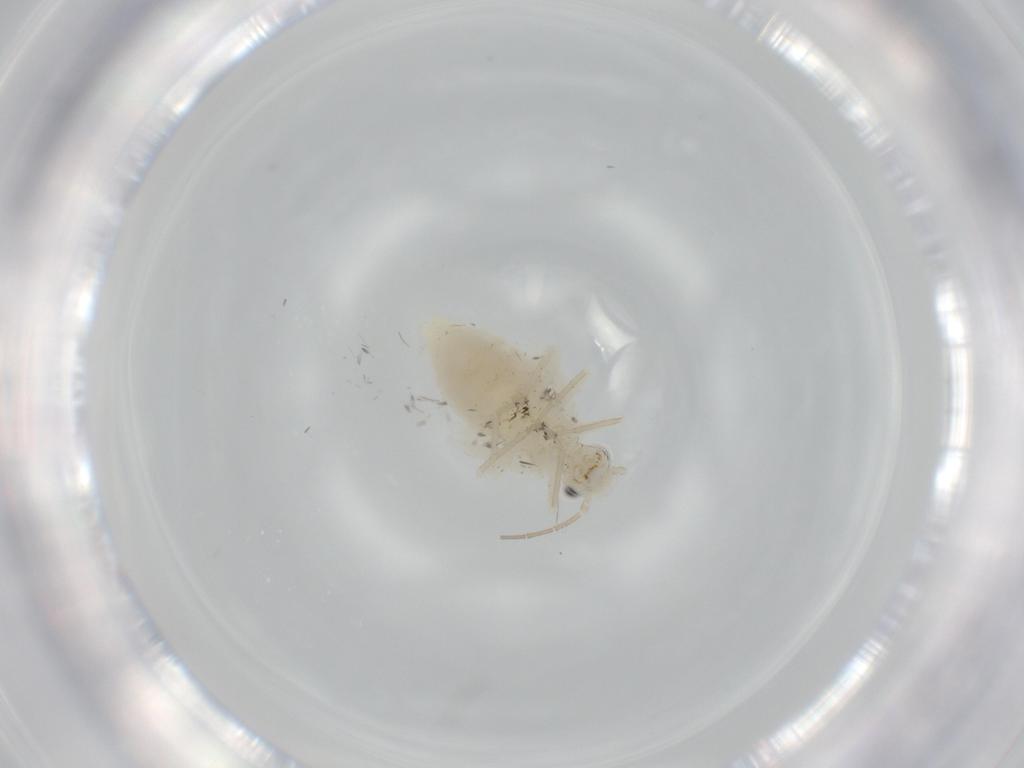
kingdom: Animalia
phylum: Arthropoda
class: Insecta
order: Psocodea
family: Caeciliusidae
